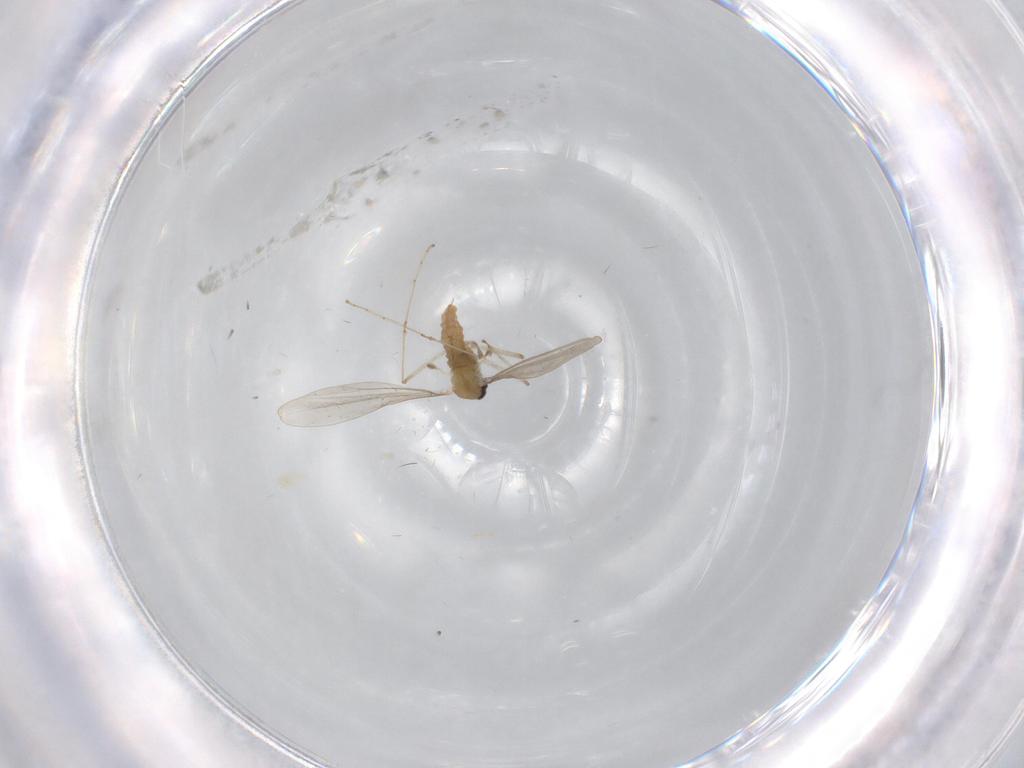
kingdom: Animalia
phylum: Arthropoda
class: Insecta
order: Diptera
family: Cecidomyiidae
